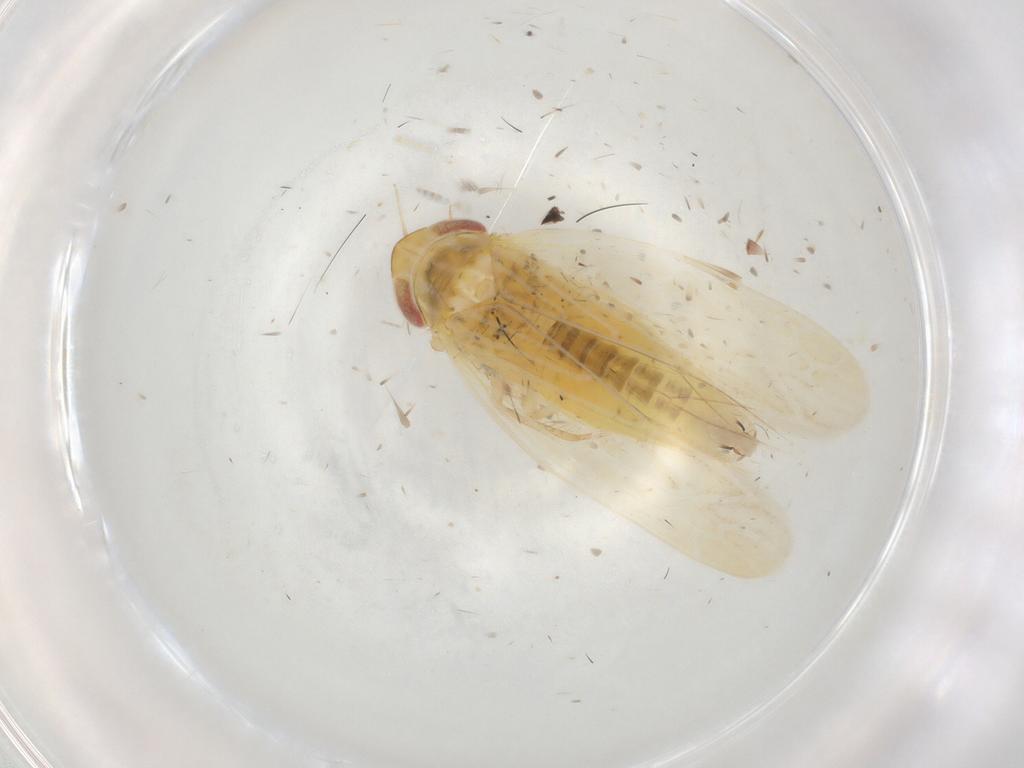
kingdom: Animalia
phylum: Arthropoda
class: Insecta
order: Hemiptera
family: Cicadellidae
